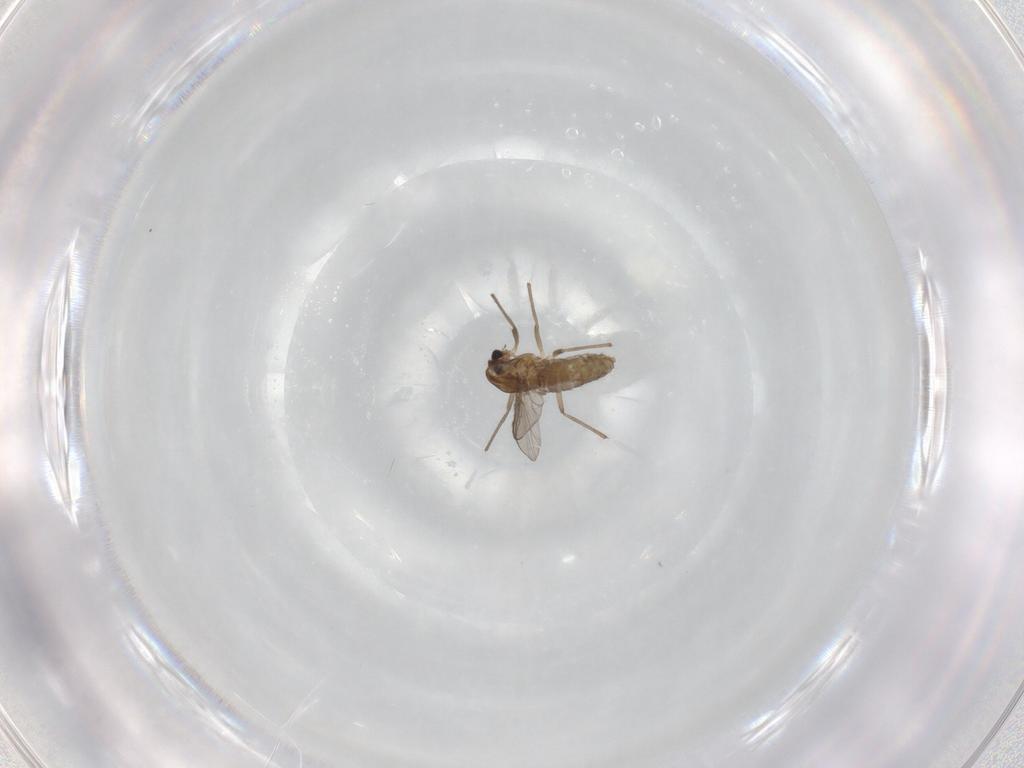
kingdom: Animalia
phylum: Arthropoda
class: Insecta
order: Diptera
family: Chironomidae
